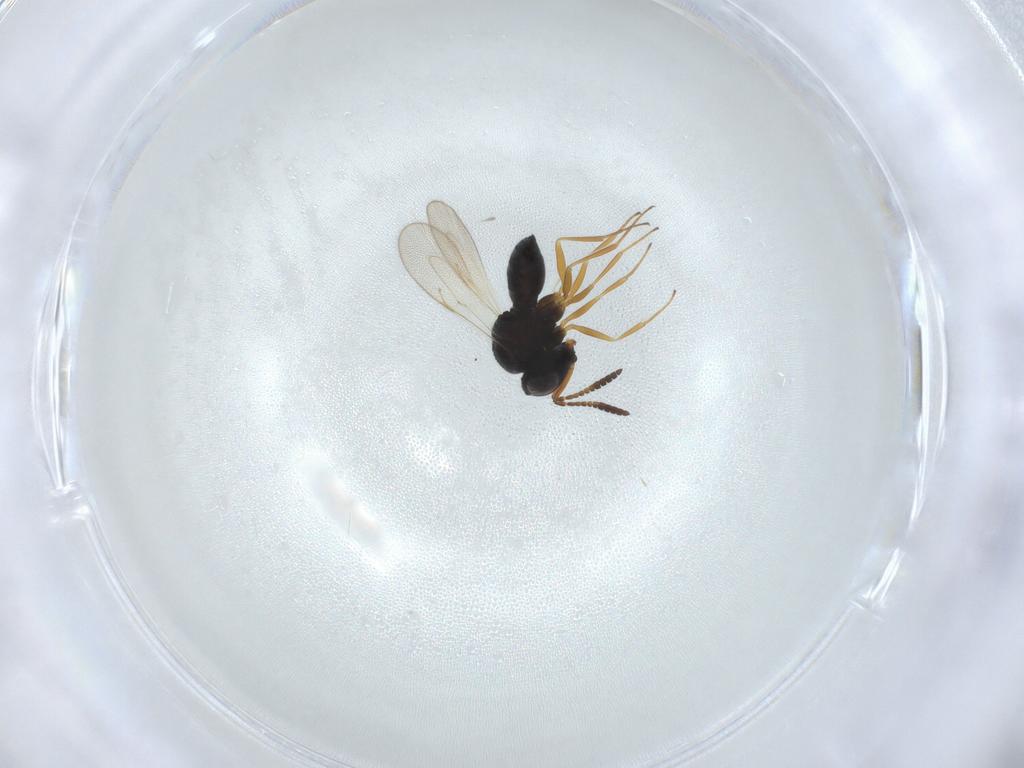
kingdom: Animalia
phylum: Arthropoda
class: Insecta
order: Hymenoptera
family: Scelionidae
